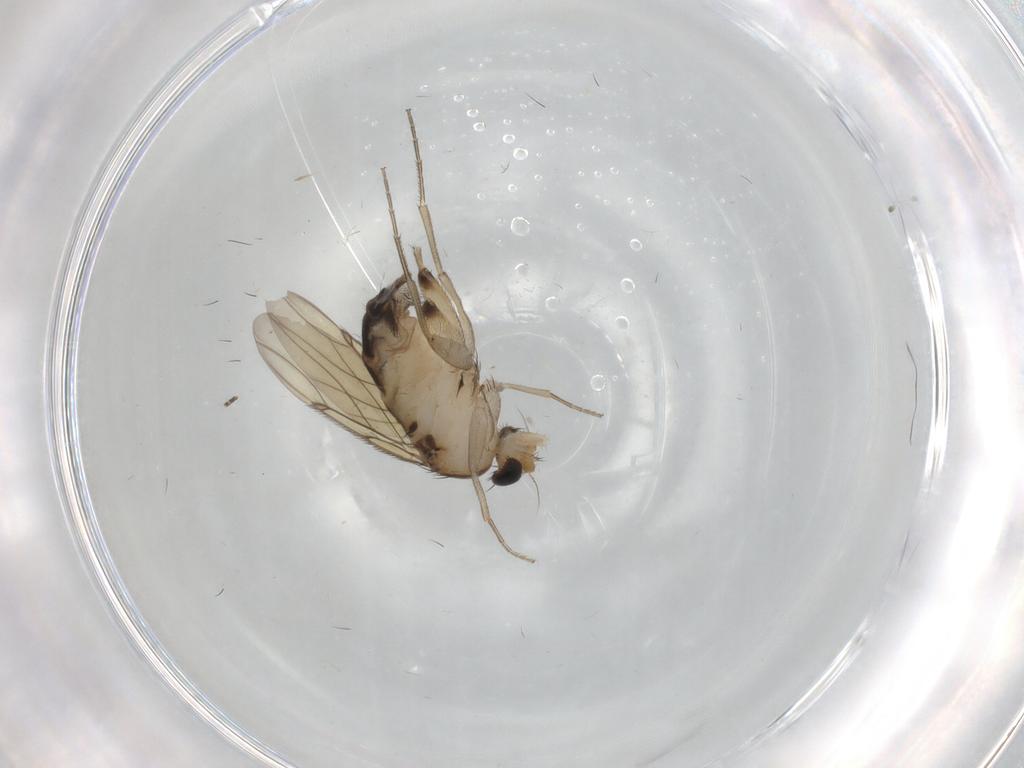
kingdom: Animalia
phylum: Arthropoda
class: Insecta
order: Diptera
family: Phoridae
